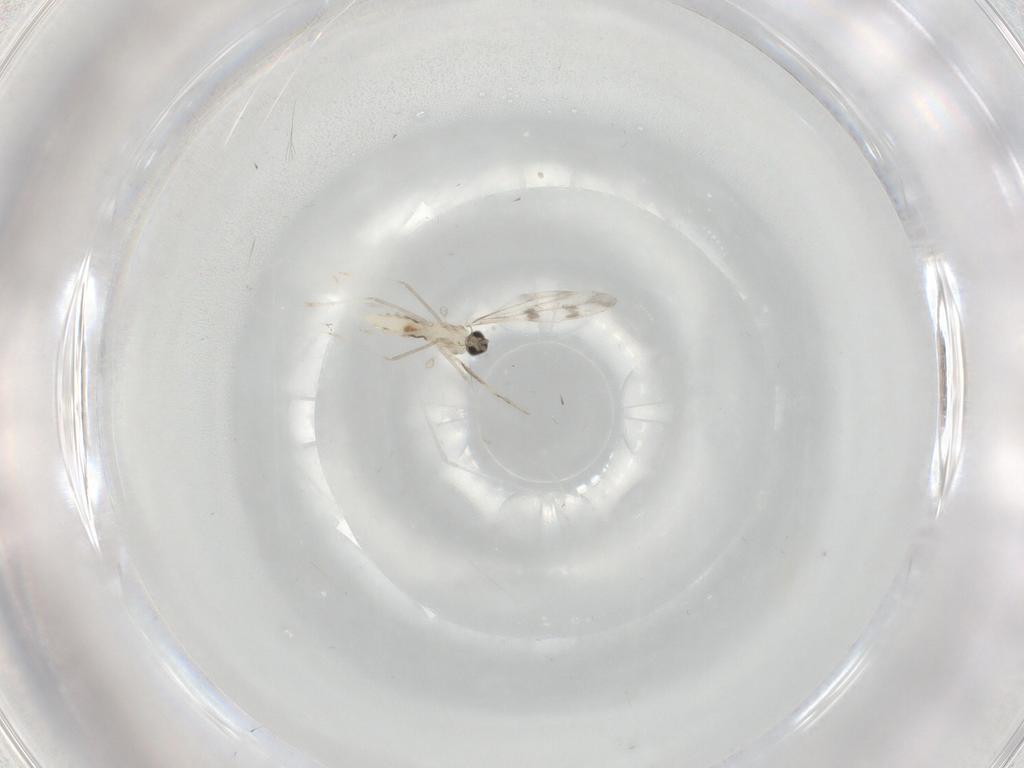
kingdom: Animalia
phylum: Arthropoda
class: Insecta
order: Diptera
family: Cecidomyiidae
